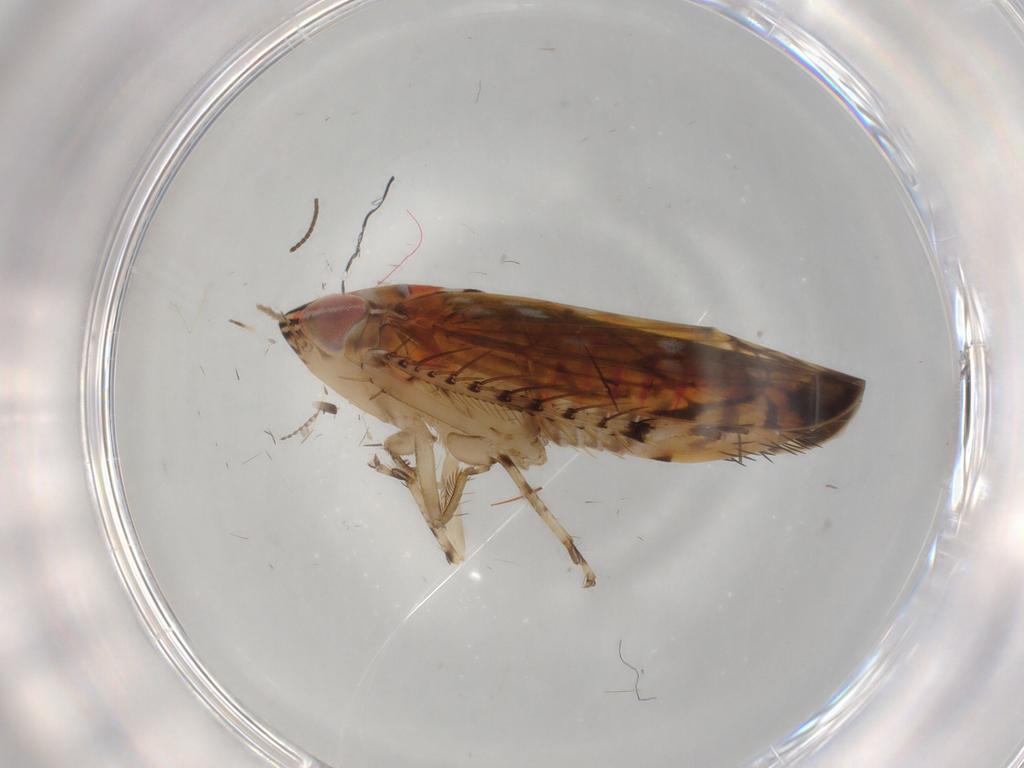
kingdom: Animalia
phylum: Arthropoda
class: Insecta
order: Hemiptera
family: Cicadellidae
